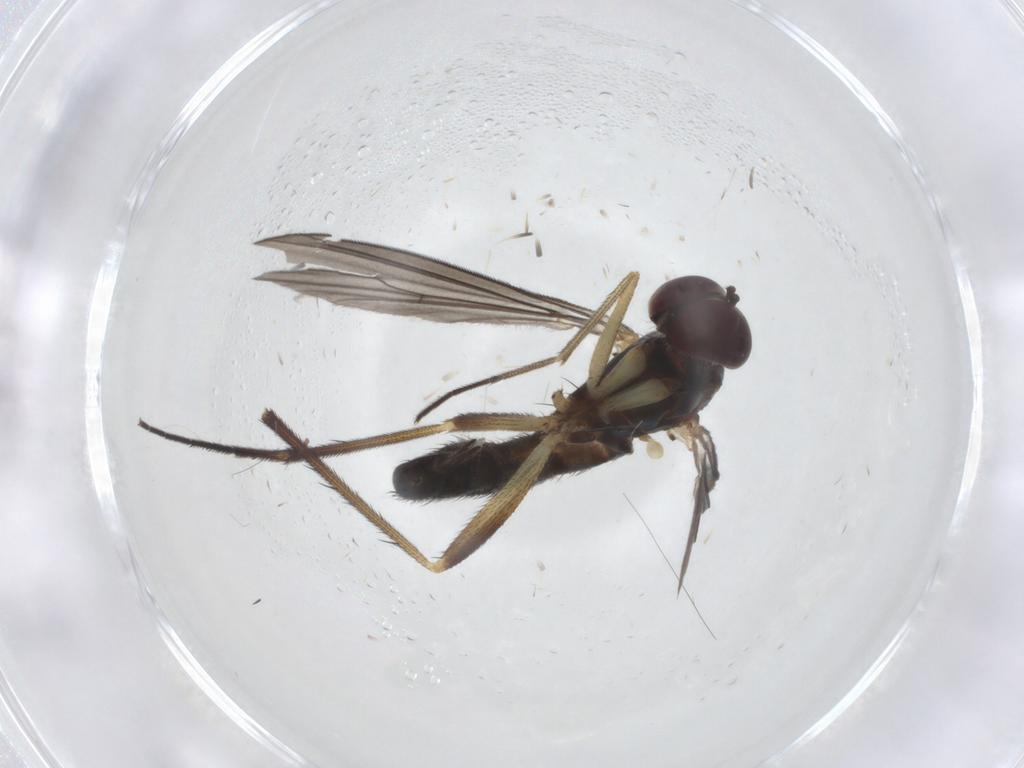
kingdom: Animalia
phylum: Arthropoda
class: Insecta
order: Diptera
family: Dolichopodidae
